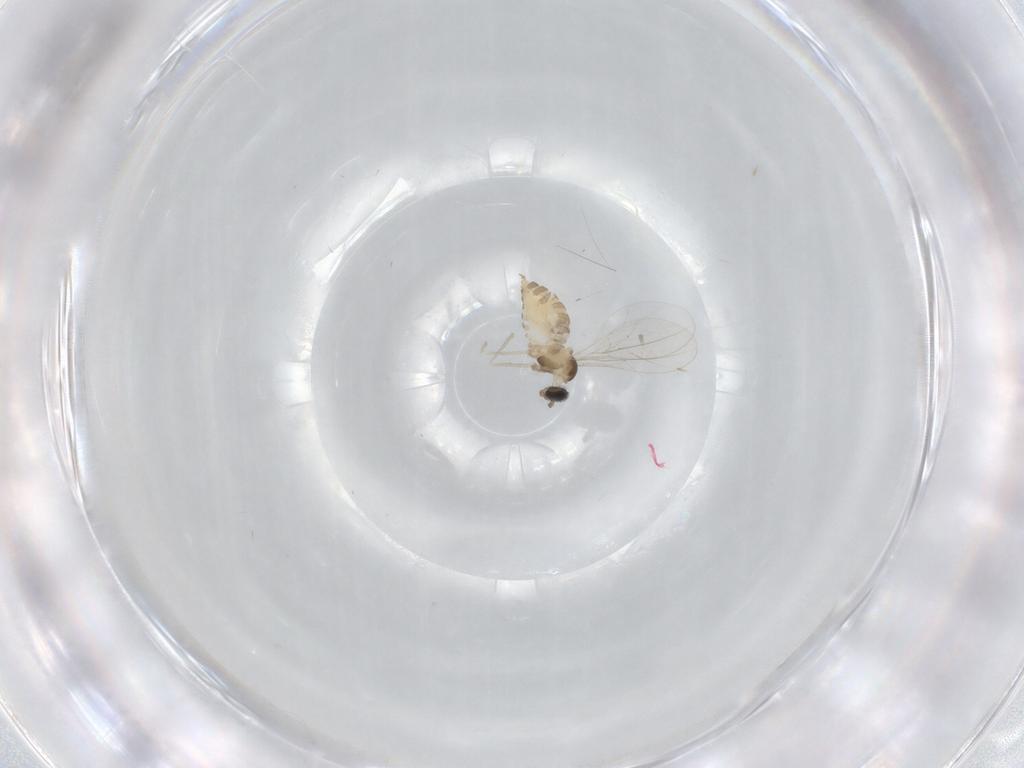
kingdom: Animalia
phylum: Arthropoda
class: Insecta
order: Diptera
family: Cecidomyiidae
